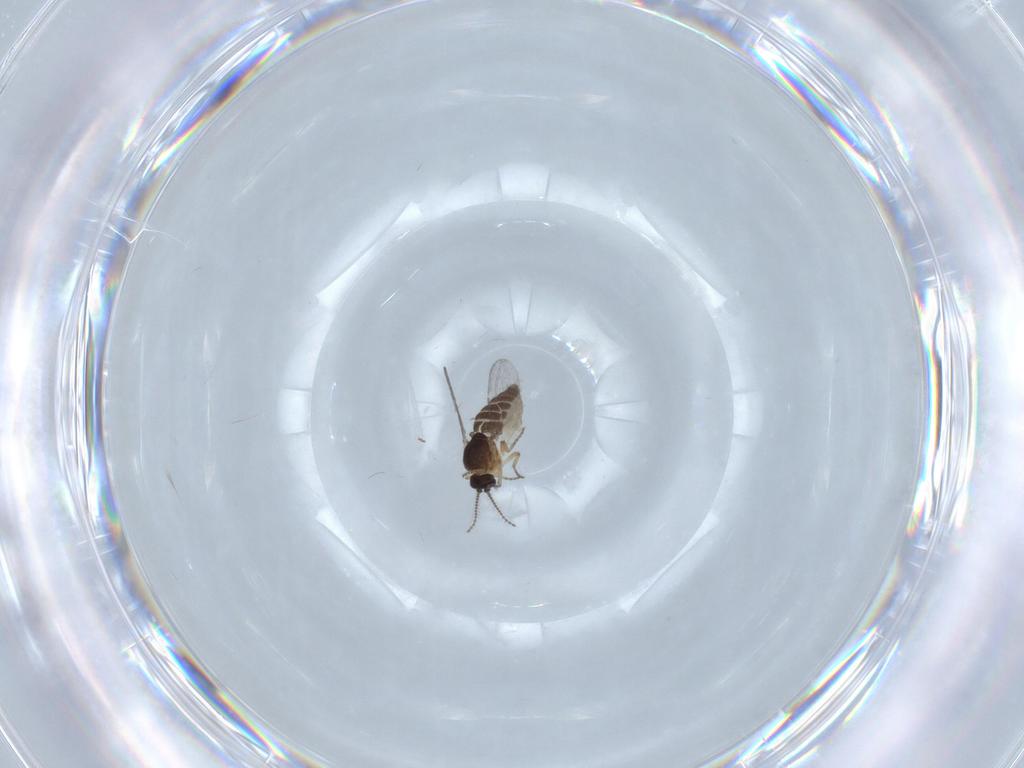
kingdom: Animalia
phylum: Arthropoda
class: Insecta
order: Diptera
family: Ceratopogonidae
